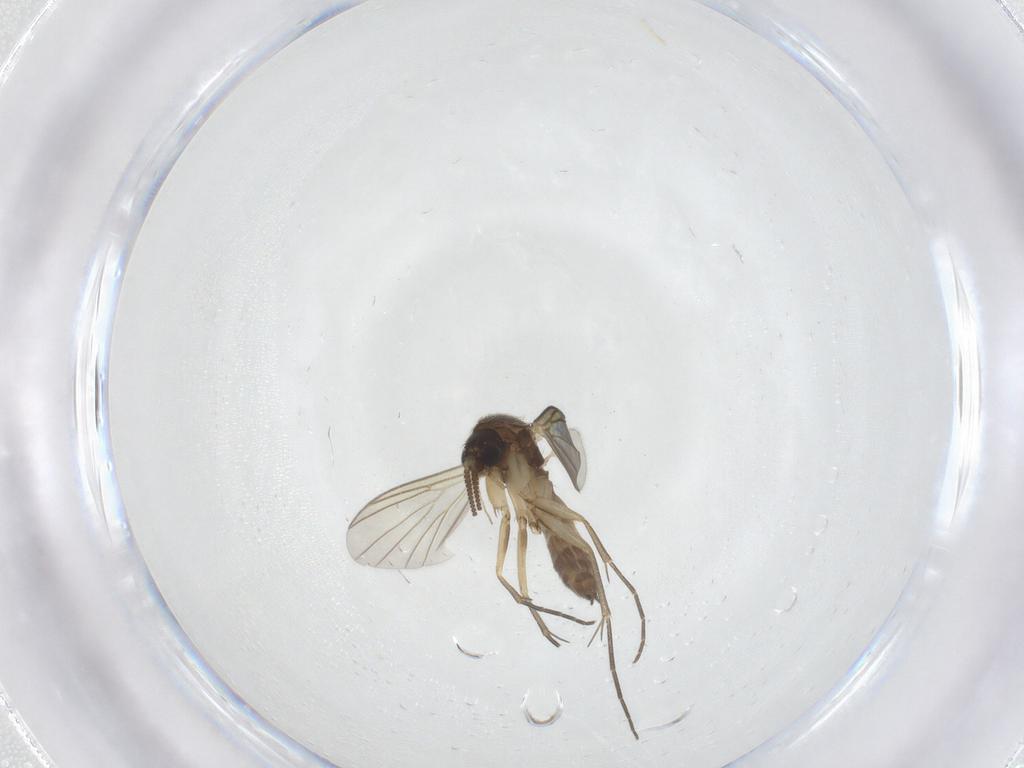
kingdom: Animalia
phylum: Arthropoda
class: Insecta
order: Diptera
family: Mycetophilidae
